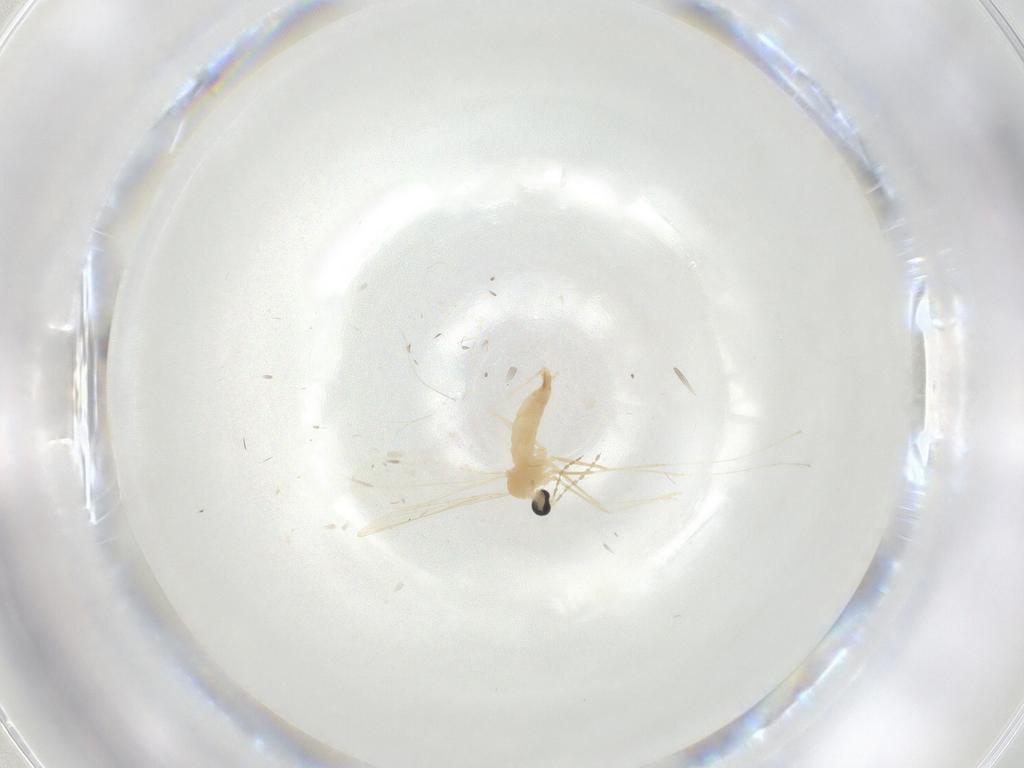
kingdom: Animalia
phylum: Arthropoda
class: Insecta
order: Diptera
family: Cecidomyiidae
